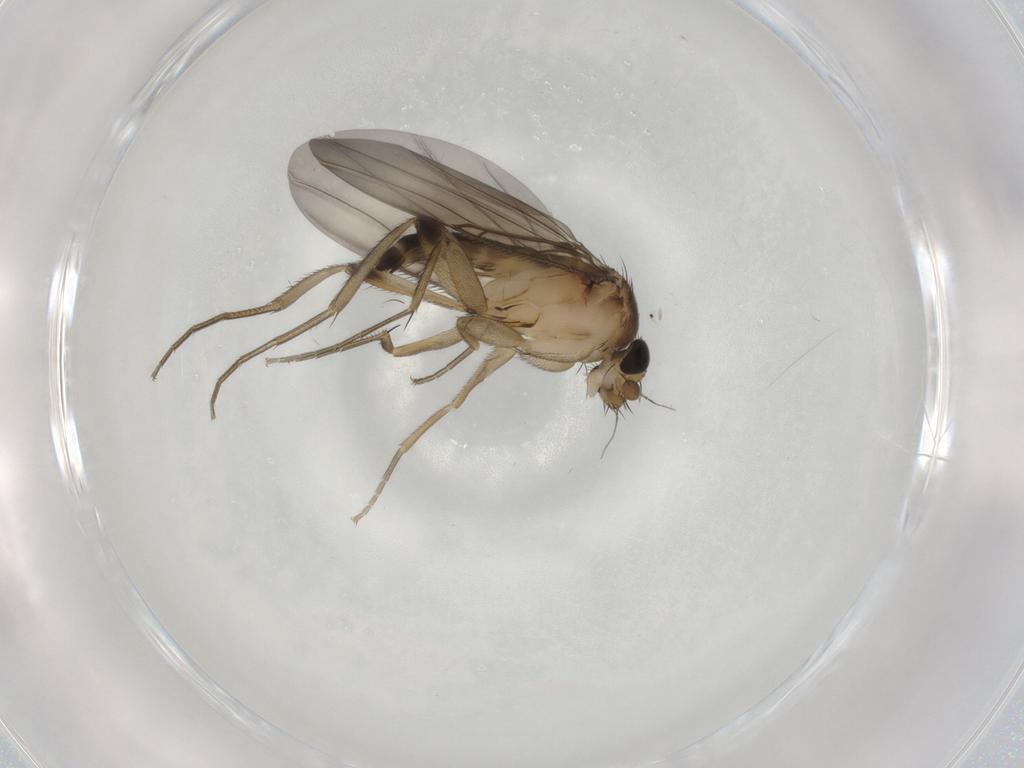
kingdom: Animalia
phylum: Arthropoda
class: Insecta
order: Diptera
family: Phoridae
